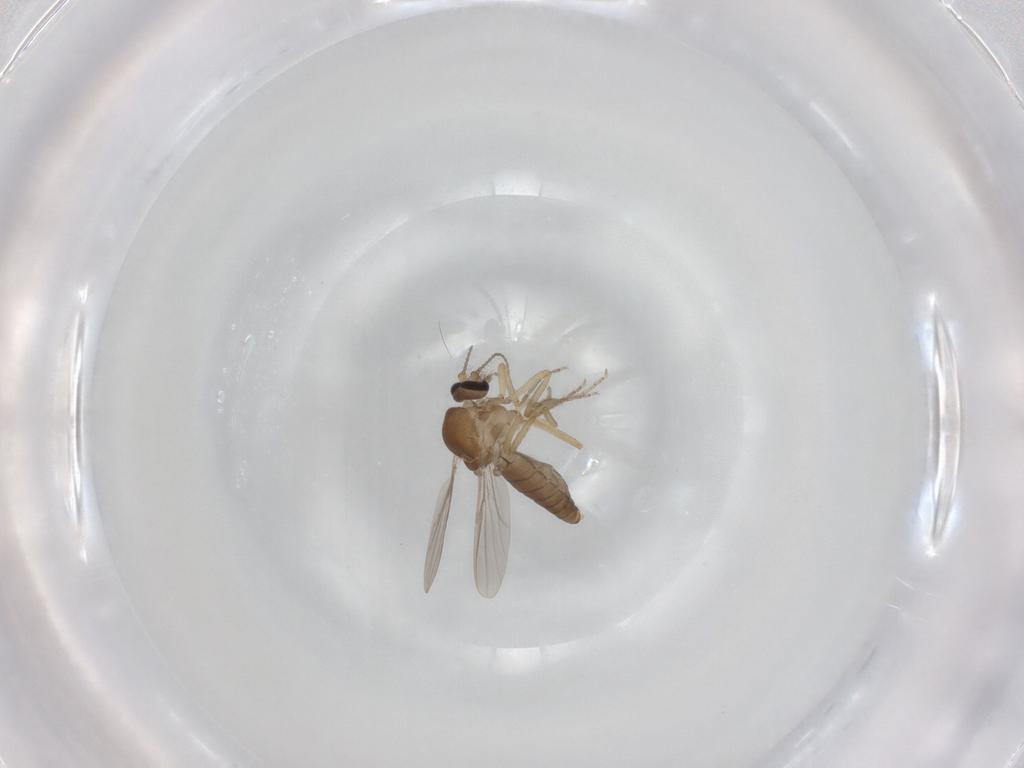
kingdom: Animalia
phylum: Arthropoda
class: Insecta
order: Diptera
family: Ceratopogonidae
